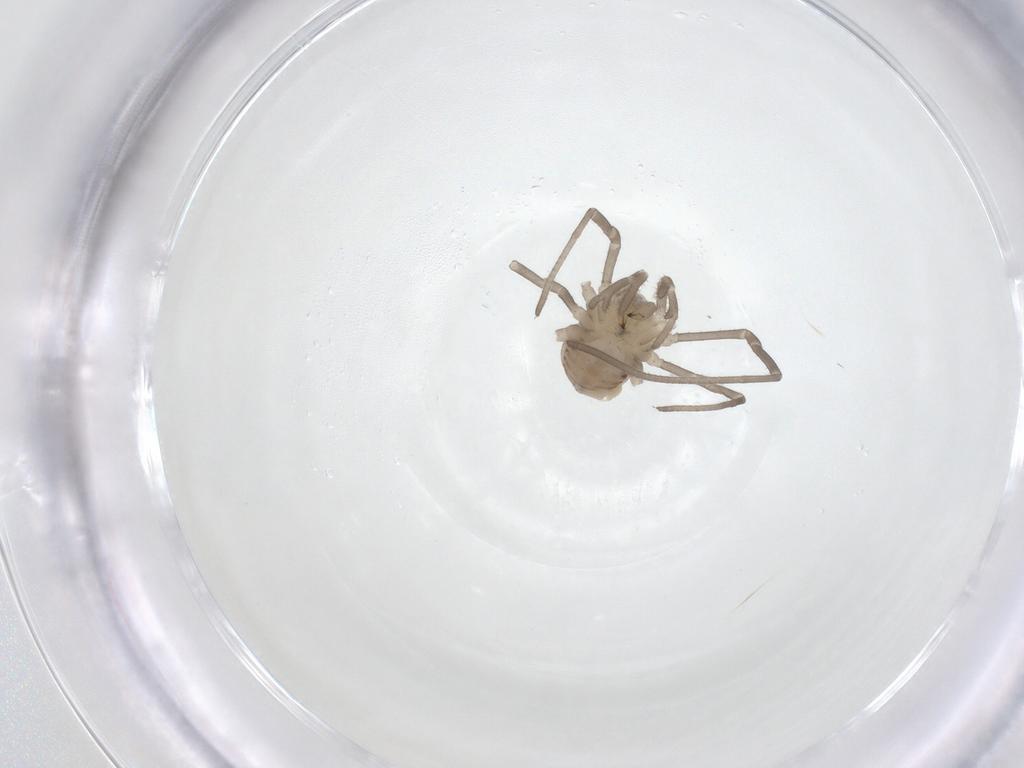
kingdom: Animalia
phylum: Arthropoda
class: Arachnida
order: Opiliones
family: Sclerosomatidae
